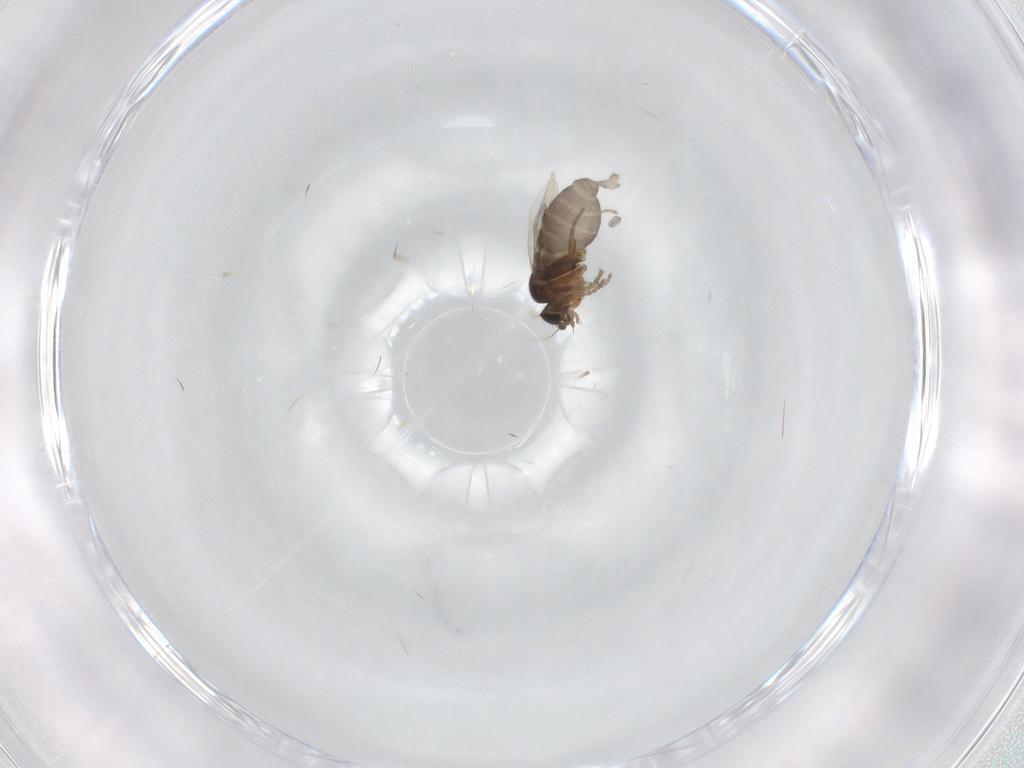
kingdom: Animalia
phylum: Arthropoda
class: Insecta
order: Diptera
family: Phoridae
